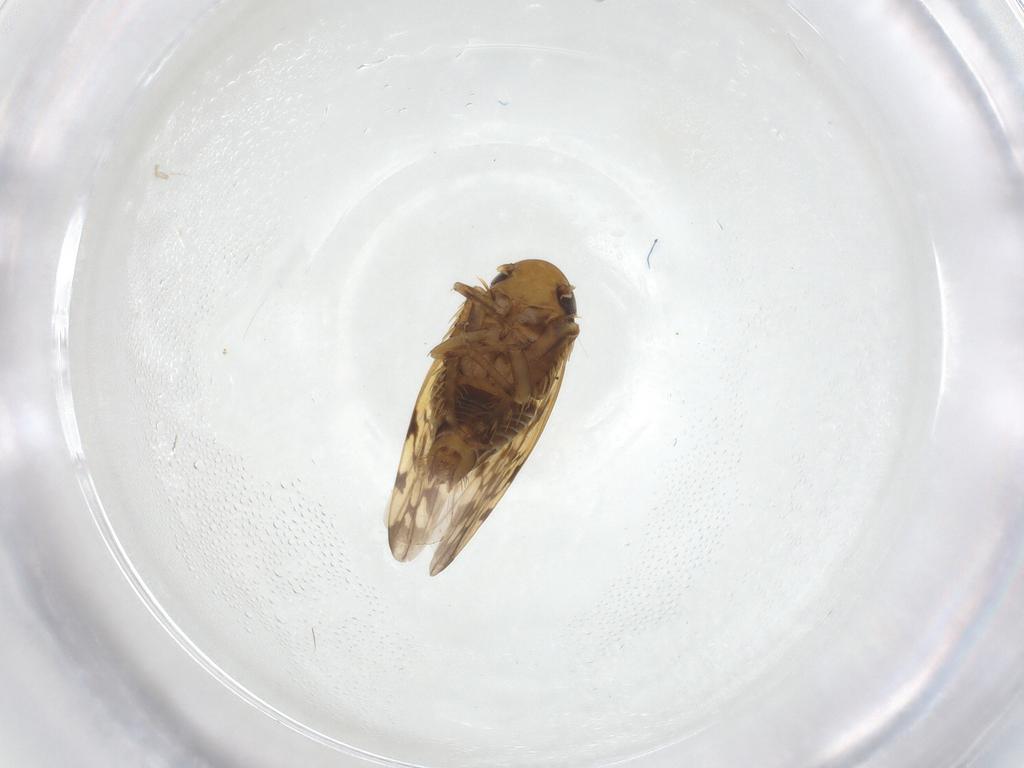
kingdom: Animalia
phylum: Arthropoda
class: Insecta
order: Hemiptera
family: Cicadellidae
